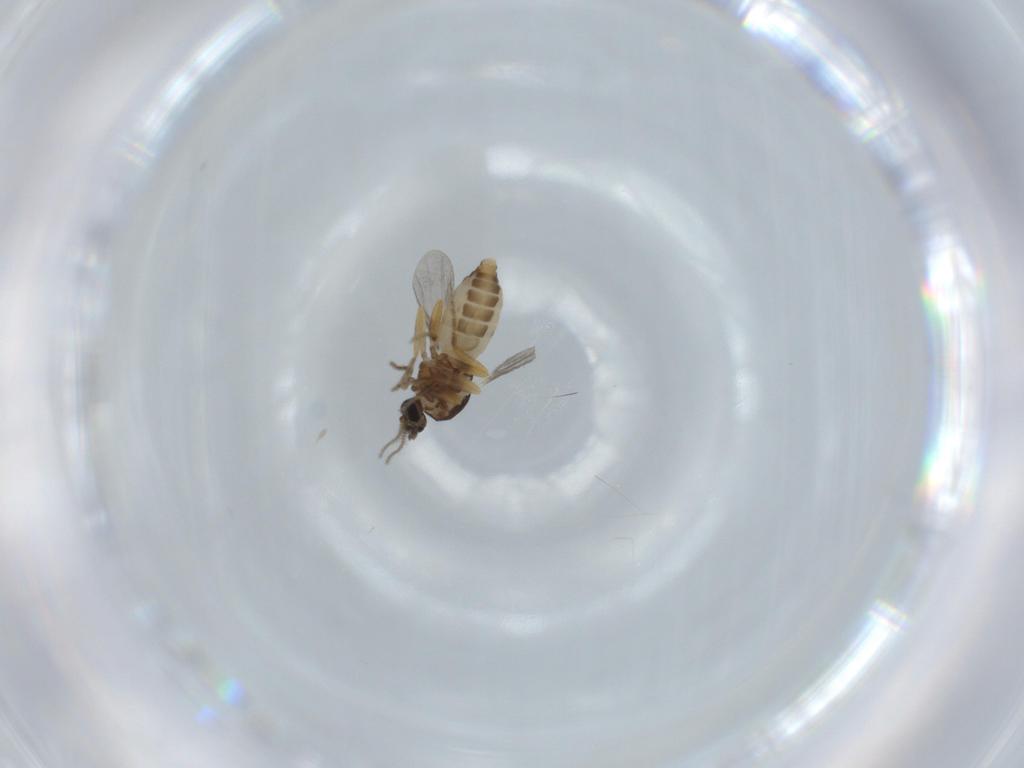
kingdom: Animalia
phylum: Arthropoda
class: Insecta
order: Diptera
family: Ceratopogonidae
